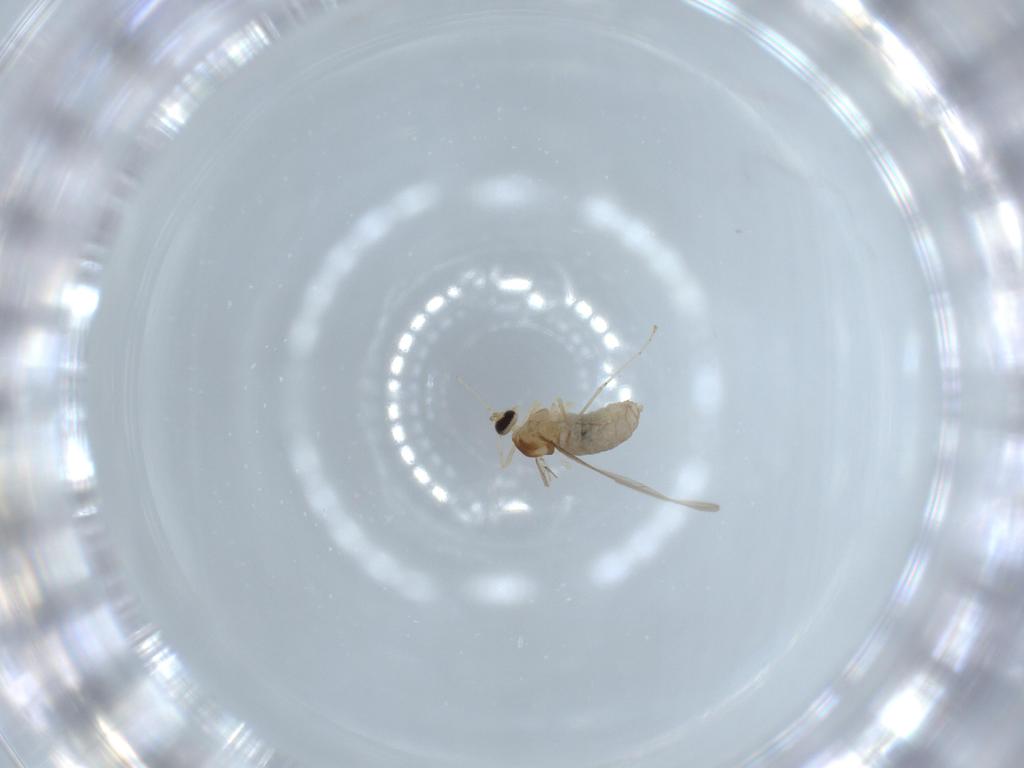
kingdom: Animalia
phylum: Arthropoda
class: Insecta
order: Diptera
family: Cecidomyiidae
